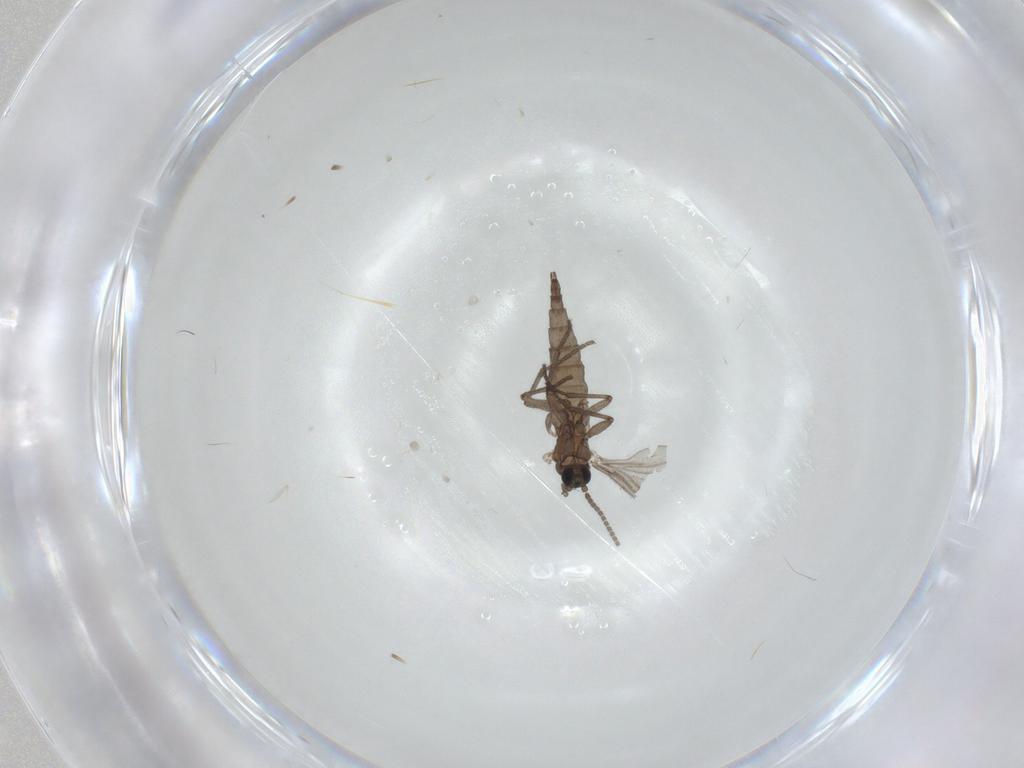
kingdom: Animalia
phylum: Arthropoda
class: Insecta
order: Diptera
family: Sciaridae
